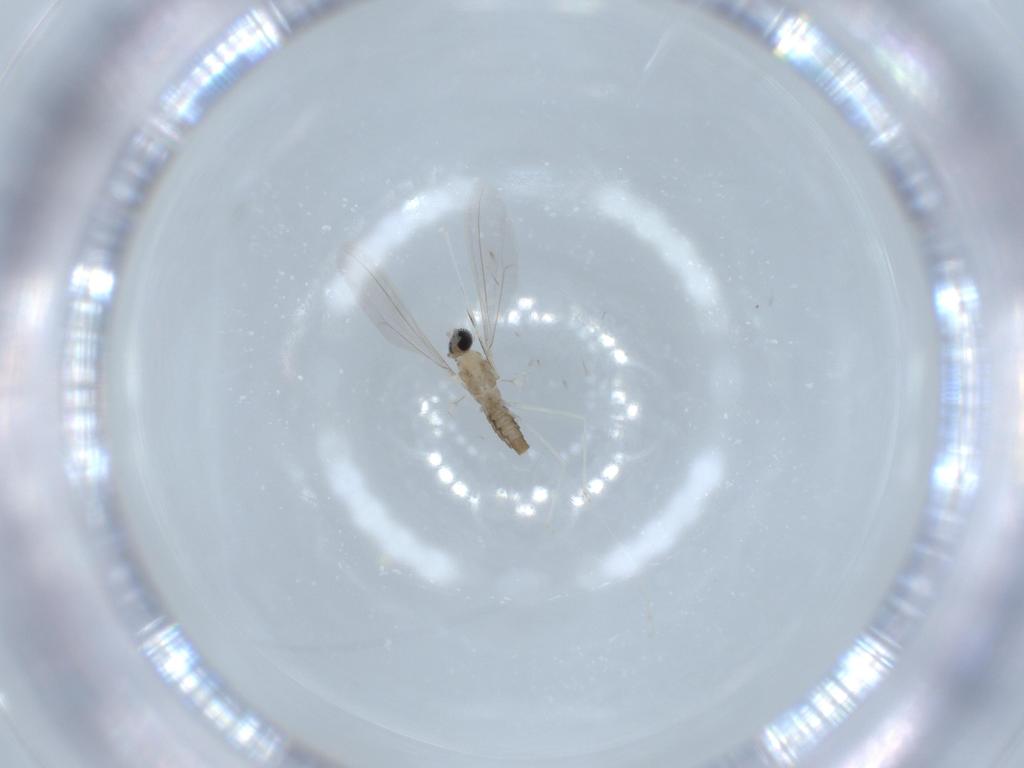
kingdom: Animalia
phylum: Arthropoda
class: Insecta
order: Diptera
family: Cecidomyiidae
